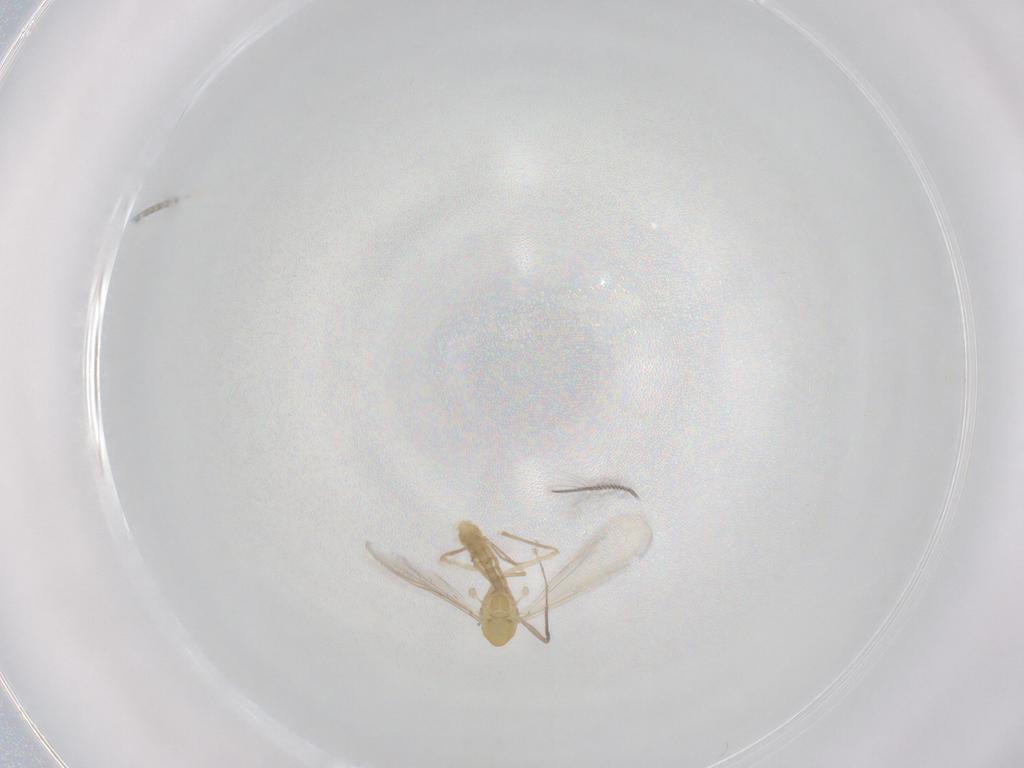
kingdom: Animalia
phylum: Arthropoda
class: Insecta
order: Diptera
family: Chironomidae
